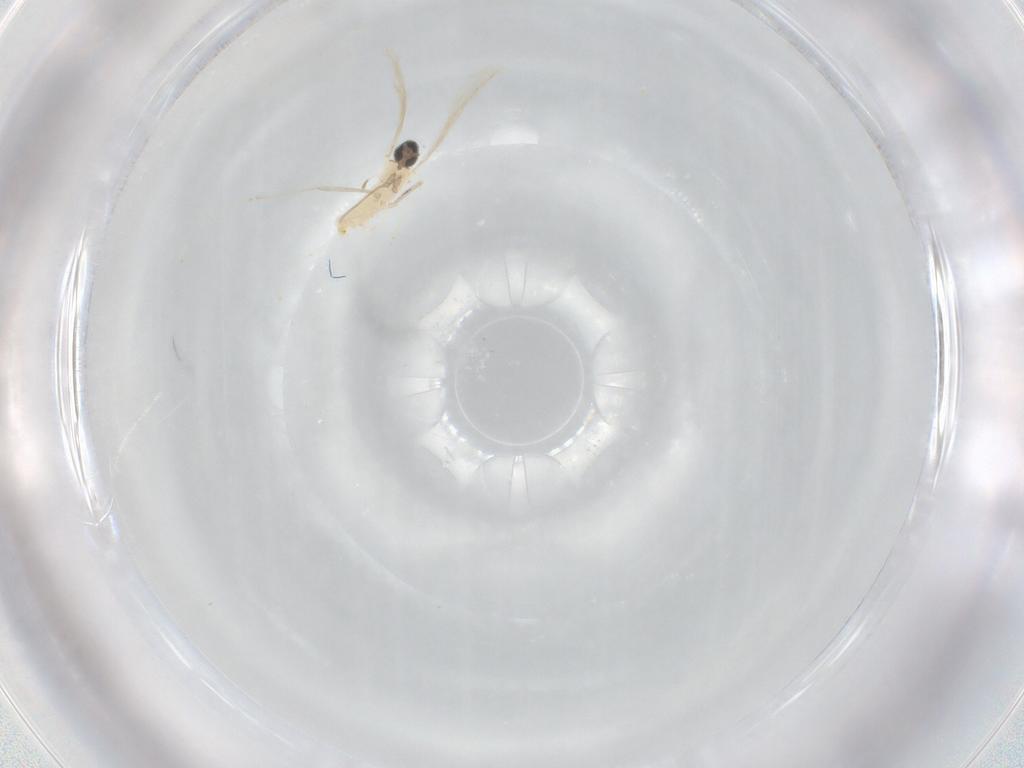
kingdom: Animalia
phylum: Arthropoda
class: Insecta
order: Diptera
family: Cecidomyiidae
